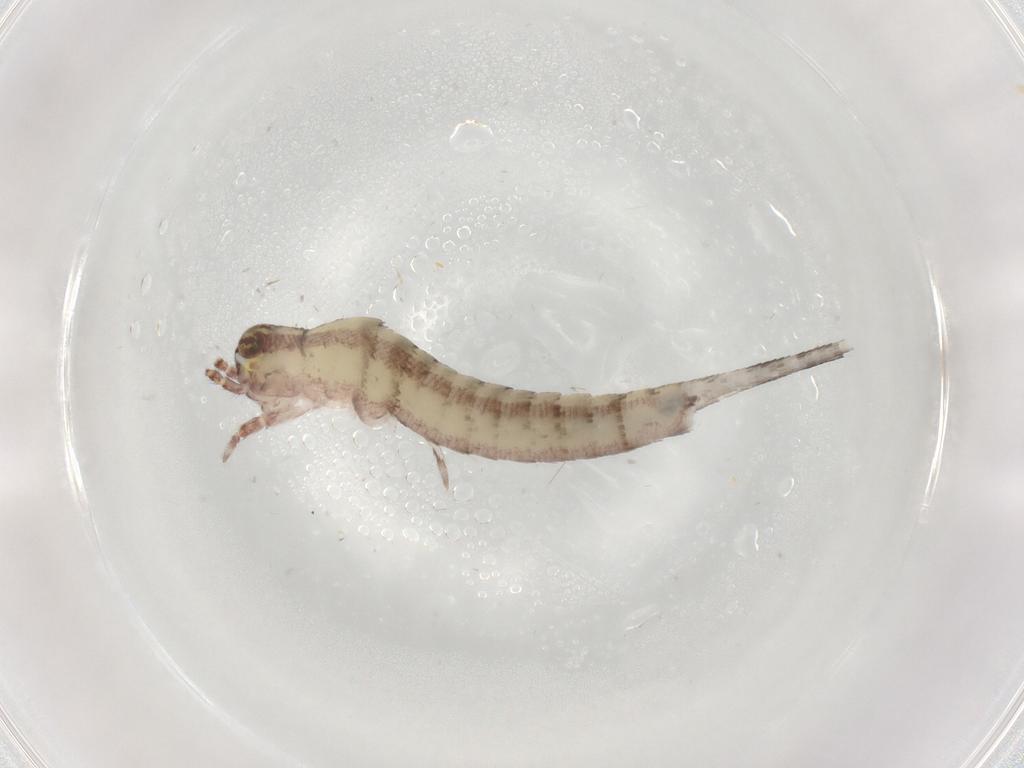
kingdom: Animalia
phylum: Arthropoda
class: Insecta
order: Archaeognatha
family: Machilidae
